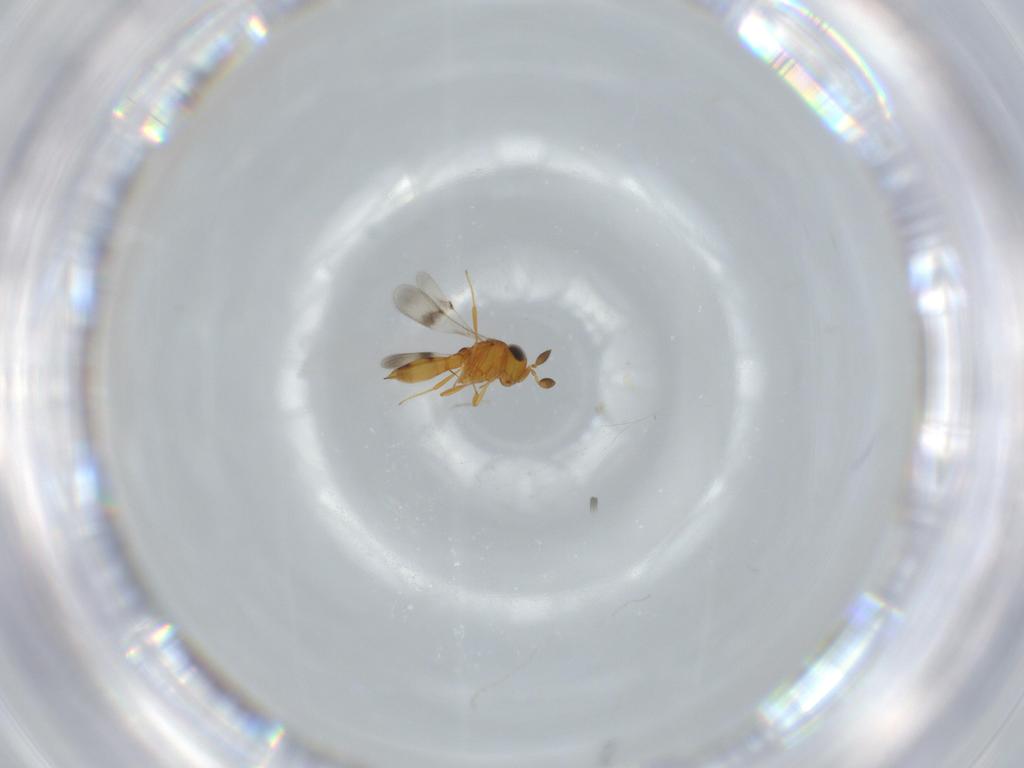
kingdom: Animalia
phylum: Arthropoda
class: Insecta
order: Hymenoptera
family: Scelionidae
